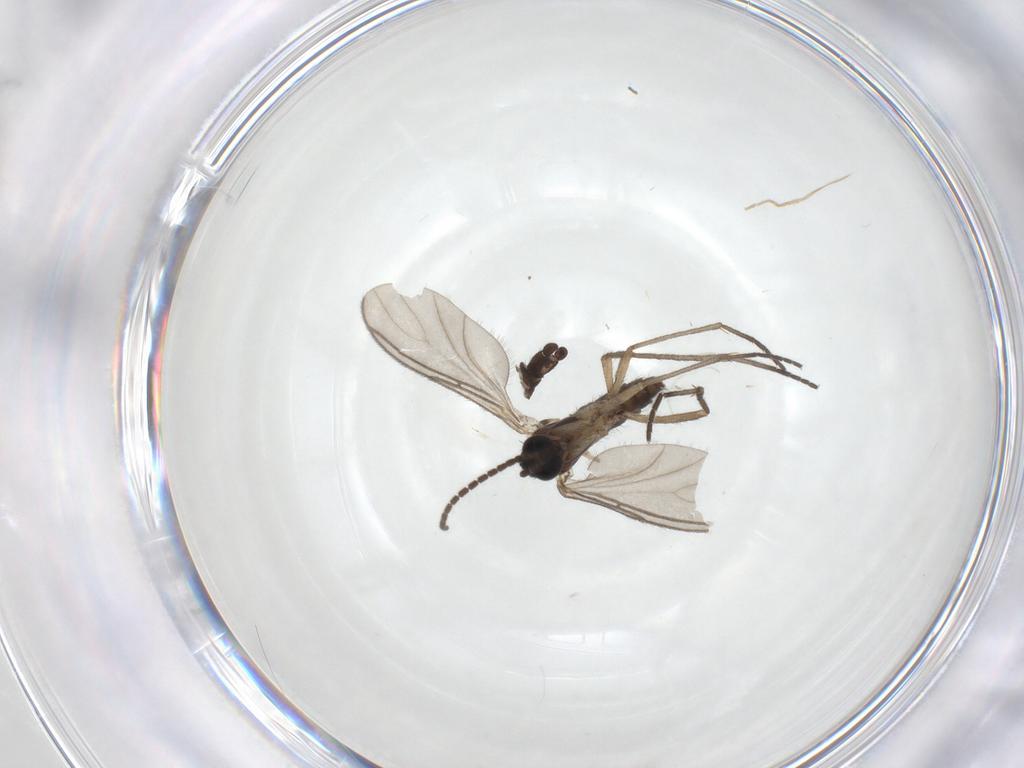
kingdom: Animalia
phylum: Arthropoda
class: Insecta
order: Diptera
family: Sciaridae
